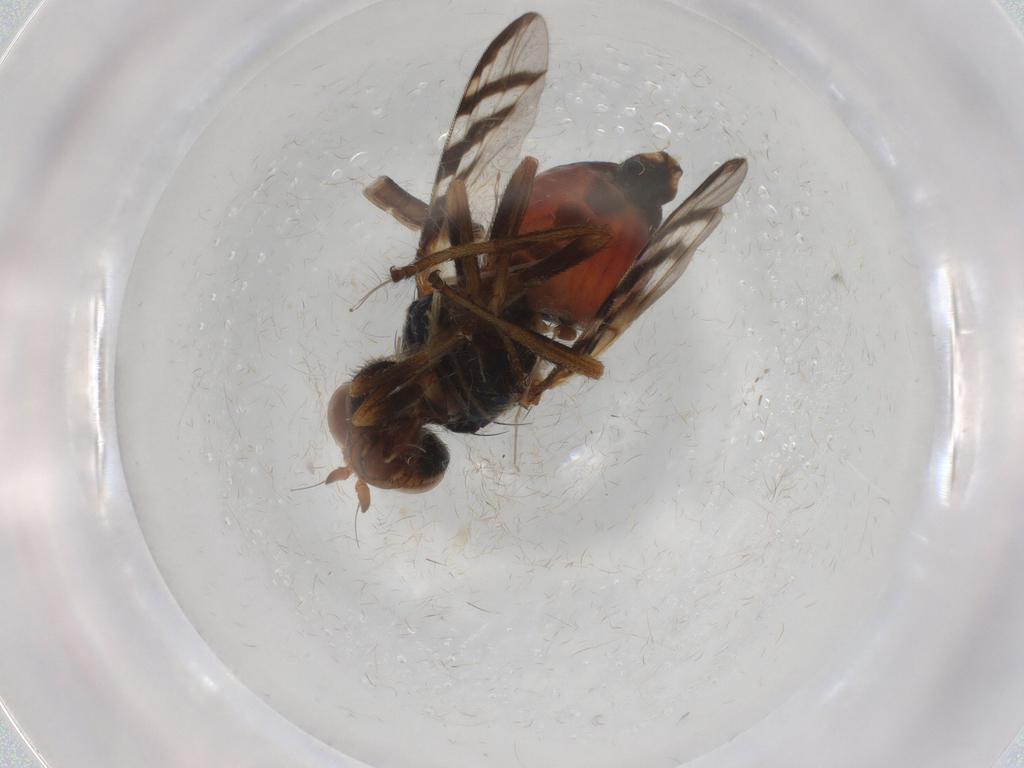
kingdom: Animalia
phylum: Arthropoda
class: Insecta
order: Diptera
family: Platystomatidae
